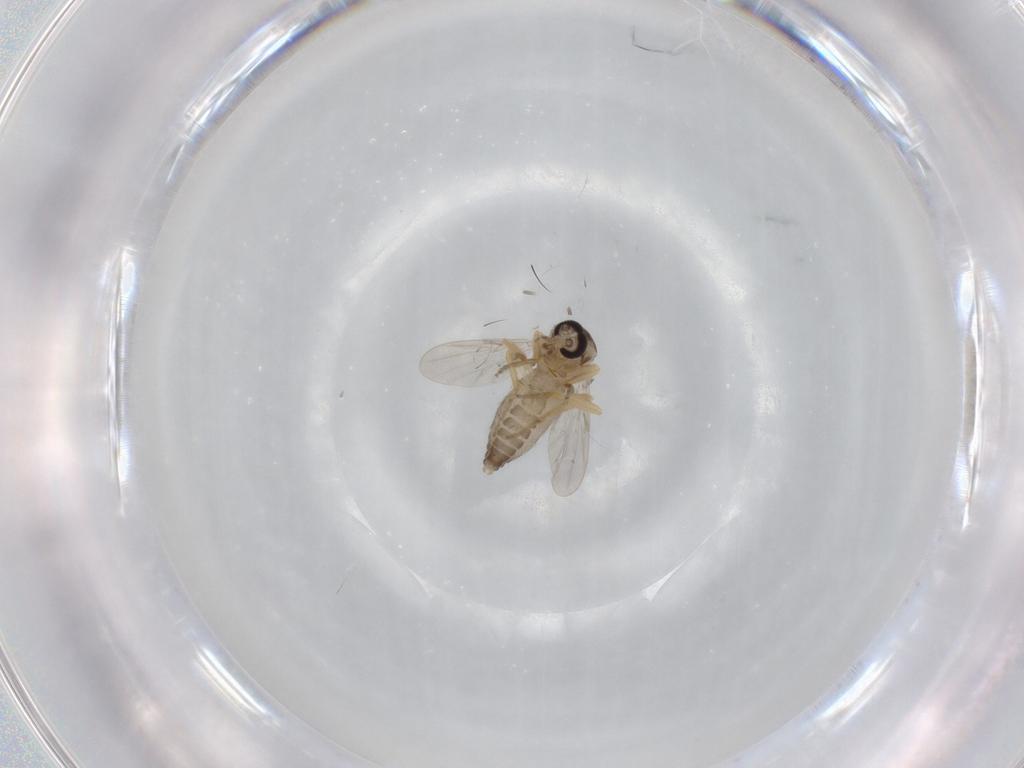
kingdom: Animalia
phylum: Arthropoda
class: Insecta
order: Diptera
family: Ceratopogonidae
